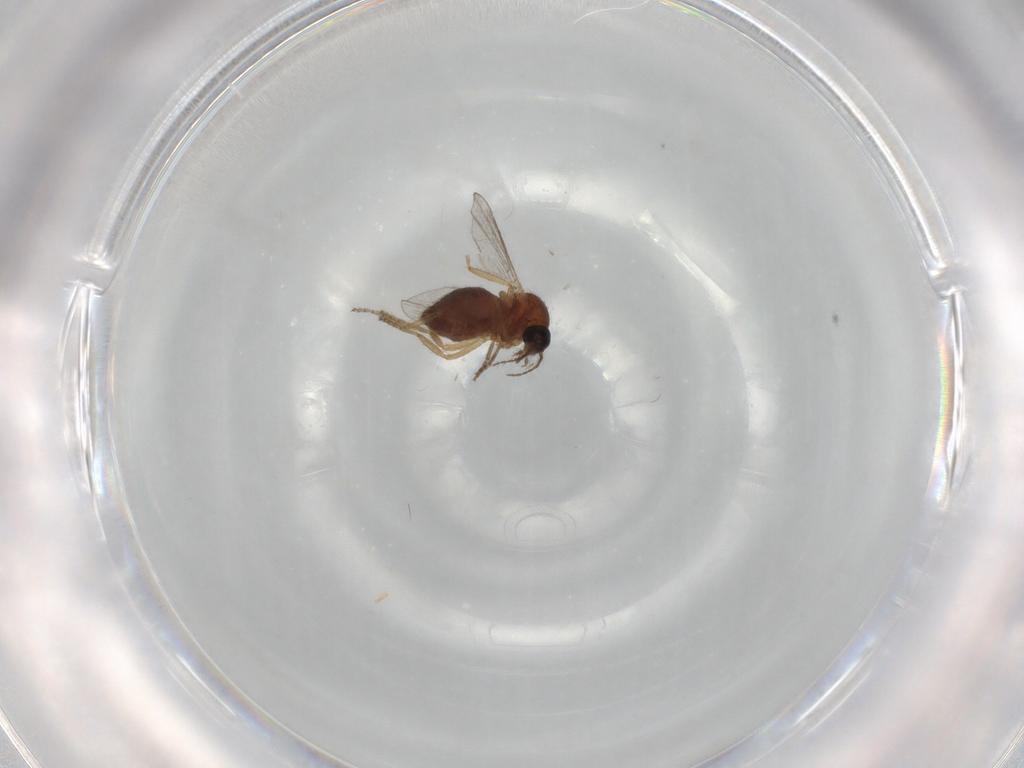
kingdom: Animalia
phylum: Arthropoda
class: Insecta
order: Diptera
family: Ceratopogonidae
